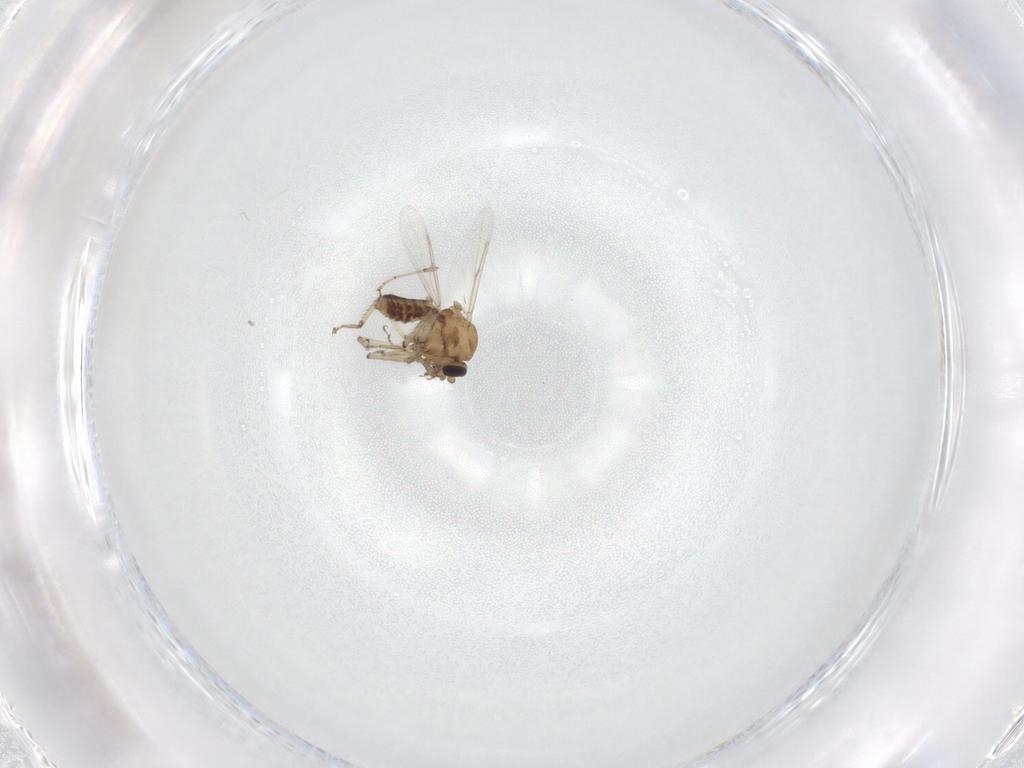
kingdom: Animalia
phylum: Arthropoda
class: Insecta
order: Diptera
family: Ceratopogonidae
